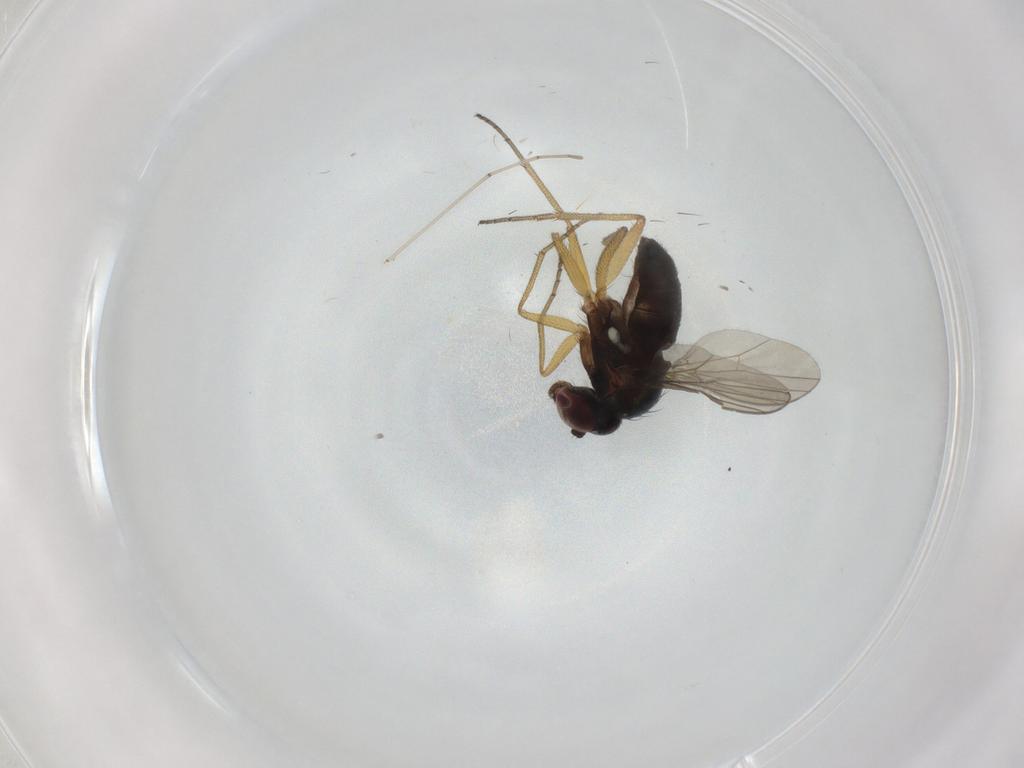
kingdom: Animalia
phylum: Arthropoda
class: Insecta
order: Diptera
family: Dolichopodidae
